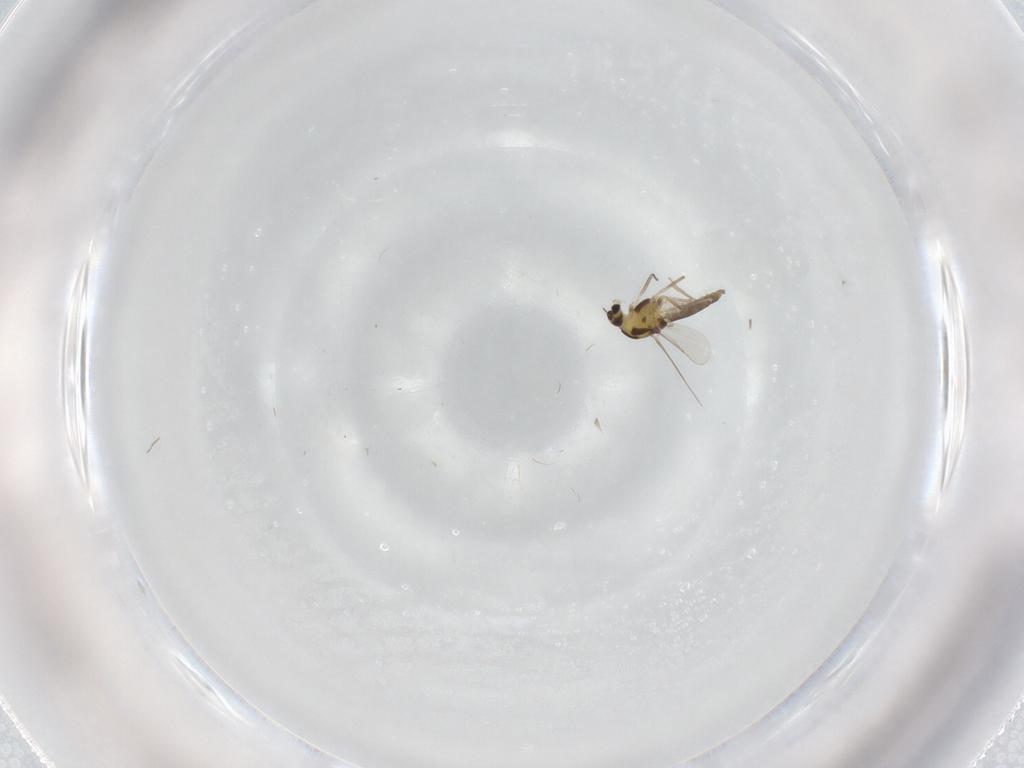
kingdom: Animalia
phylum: Arthropoda
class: Insecta
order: Diptera
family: Chironomidae
